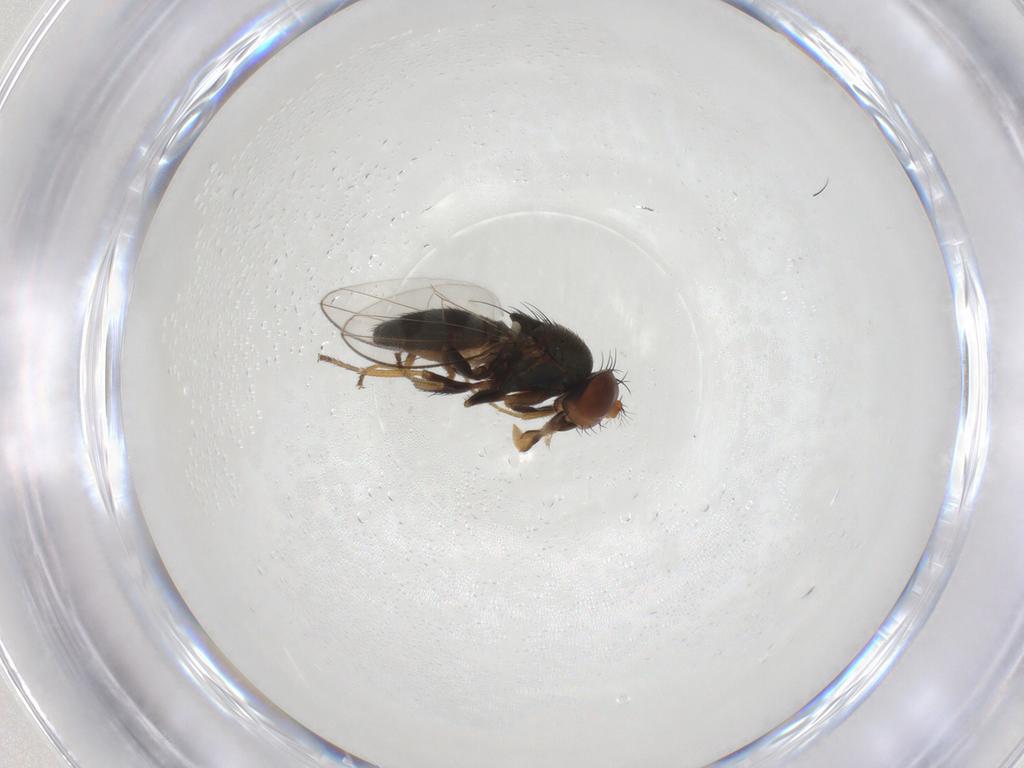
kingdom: Animalia
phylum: Arthropoda
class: Insecta
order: Diptera
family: Ephydridae
